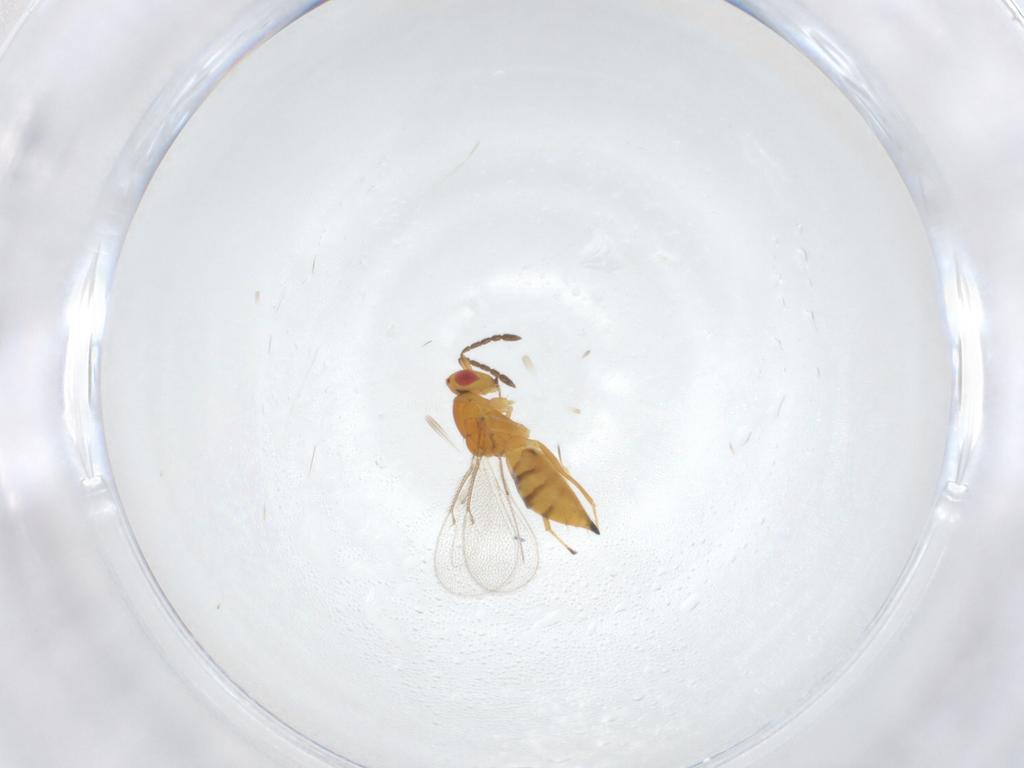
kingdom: Animalia
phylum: Arthropoda
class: Insecta
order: Hymenoptera
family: Eulophidae
